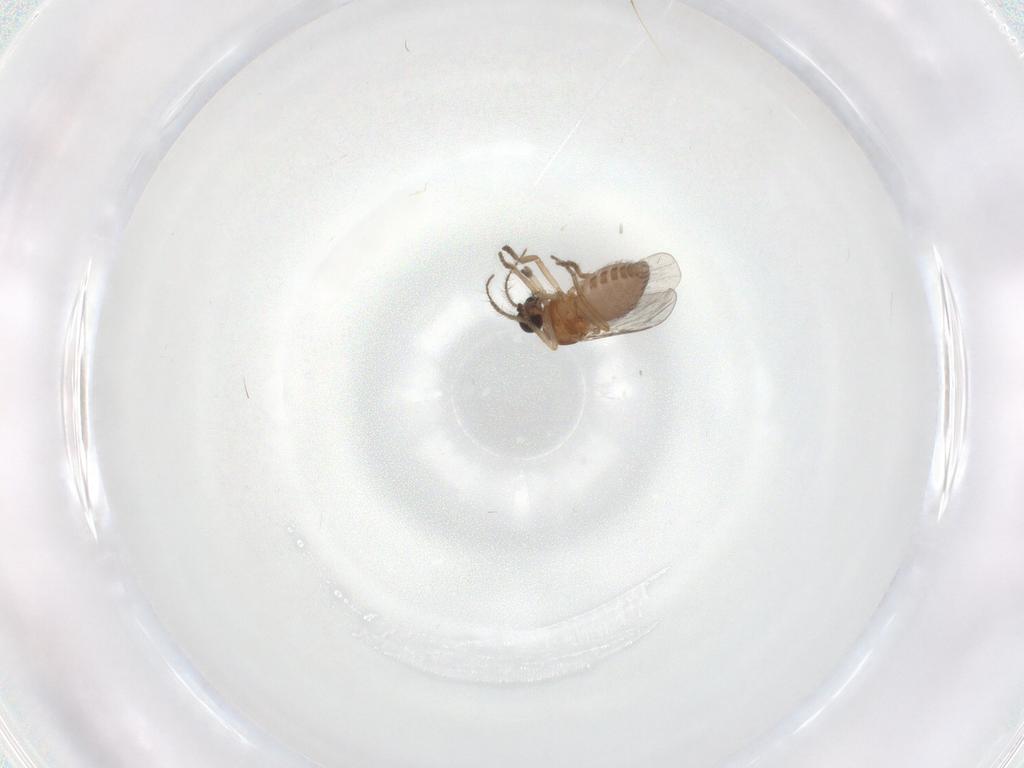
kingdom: Animalia
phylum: Arthropoda
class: Insecta
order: Diptera
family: Ceratopogonidae
